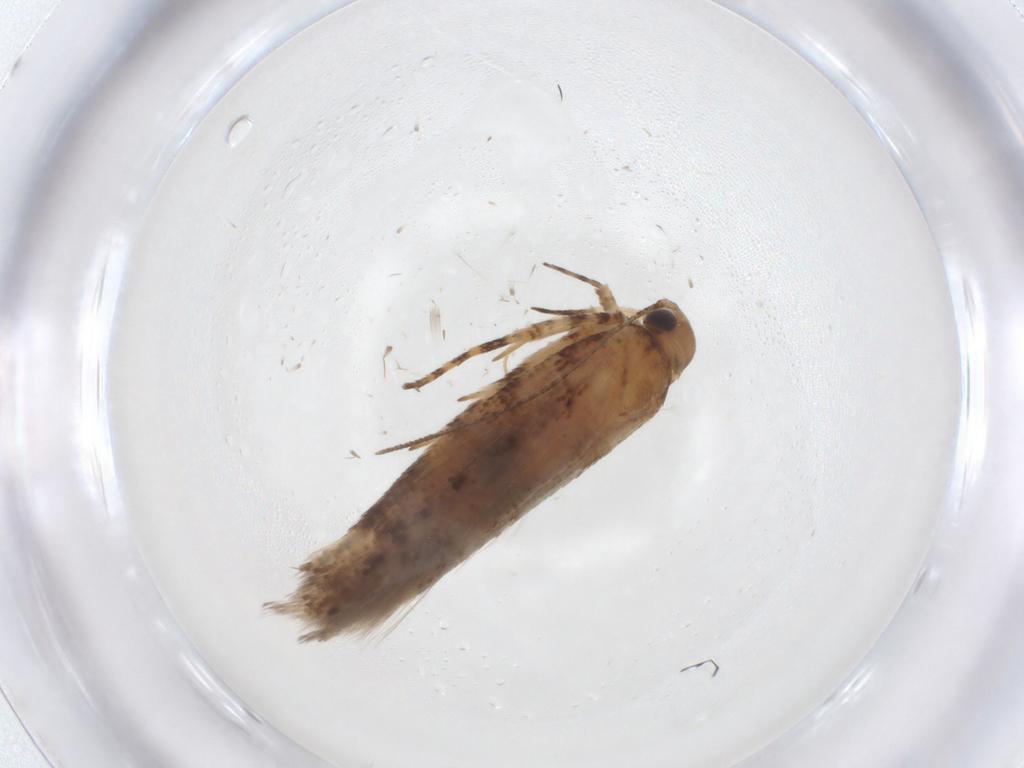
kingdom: Animalia
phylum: Arthropoda
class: Insecta
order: Lepidoptera
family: Gelechiidae
